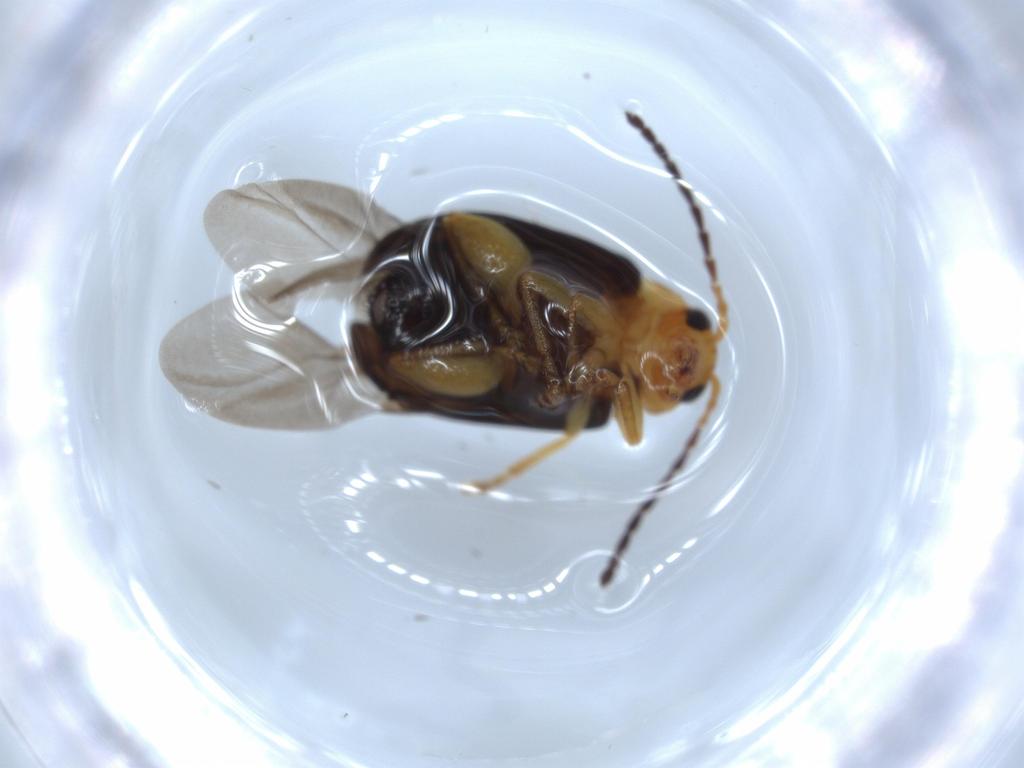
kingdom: Animalia
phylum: Arthropoda
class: Insecta
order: Coleoptera
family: Chrysomelidae
